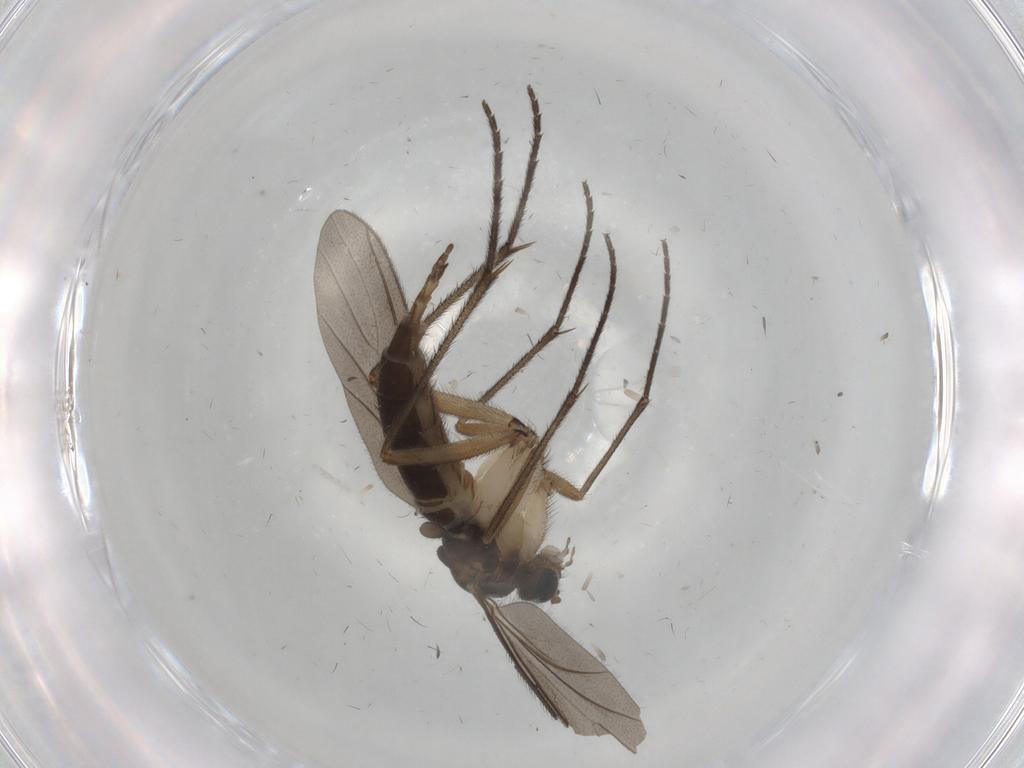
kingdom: Animalia
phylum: Arthropoda
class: Insecta
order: Diptera
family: Sciaridae
